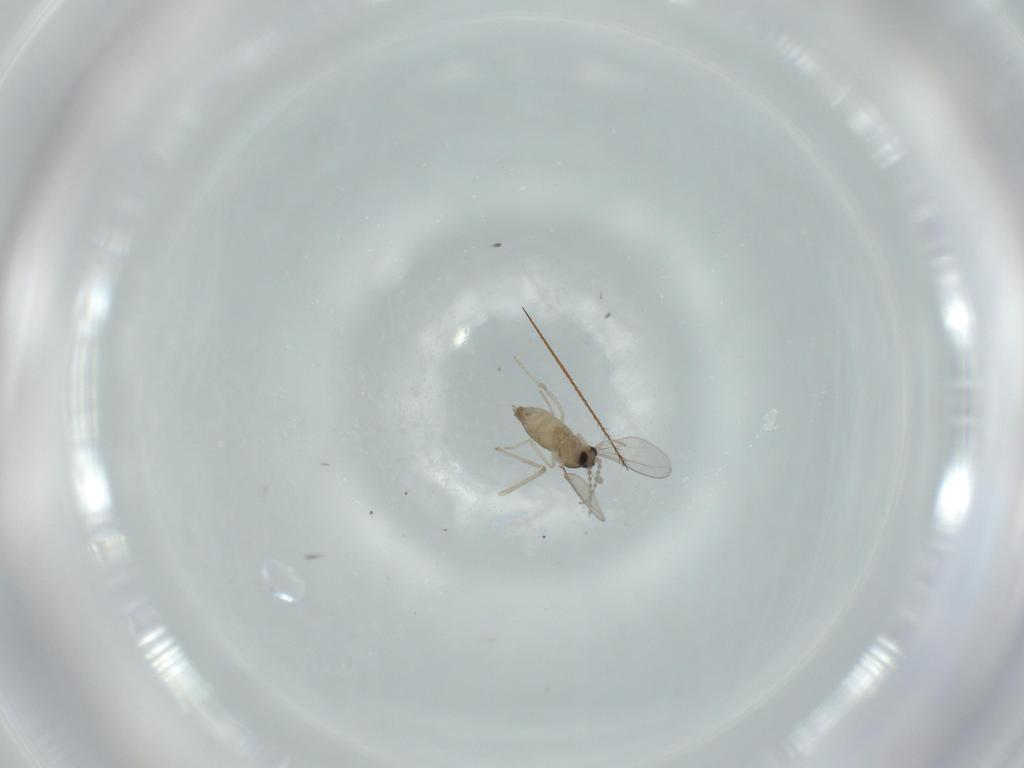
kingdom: Animalia
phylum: Arthropoda
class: Insecta
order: Diptera
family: Cecidomyiidae
